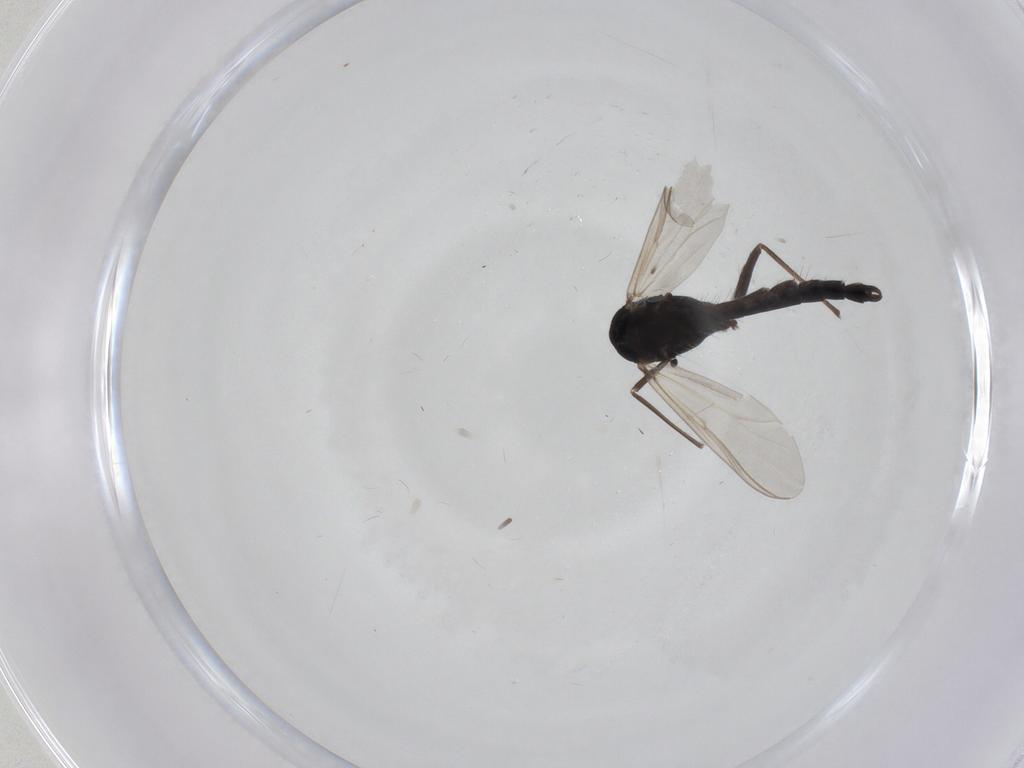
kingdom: Animalia
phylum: Arthropoda
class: Insecta
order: Diptera
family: Chironomidae
